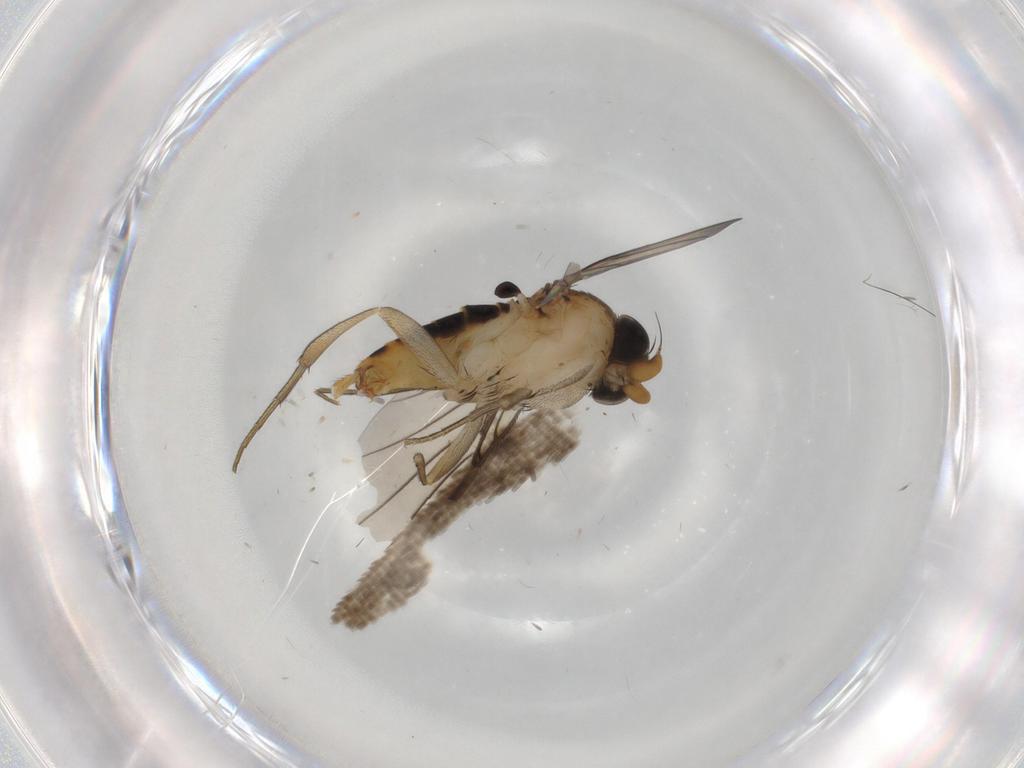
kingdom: Animalia
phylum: Arthropoda
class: Insecta
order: Diptera
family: Phoridae
